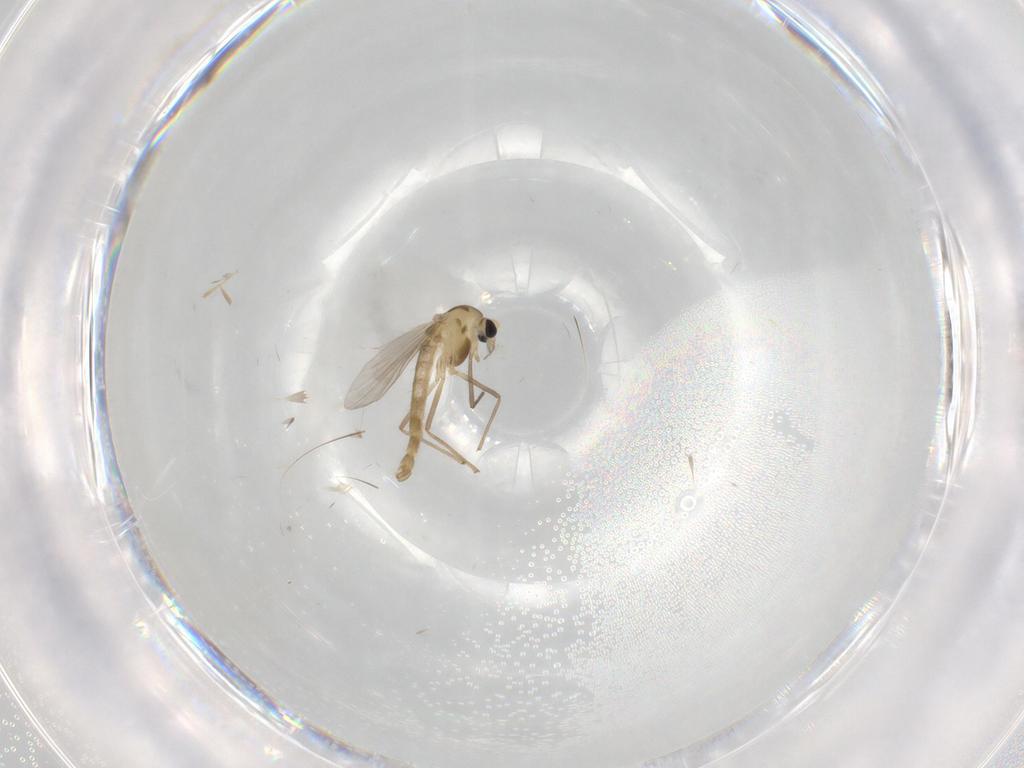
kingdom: Animalia
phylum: Arthropoda
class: Insecta
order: Diptera
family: Chironomidae
